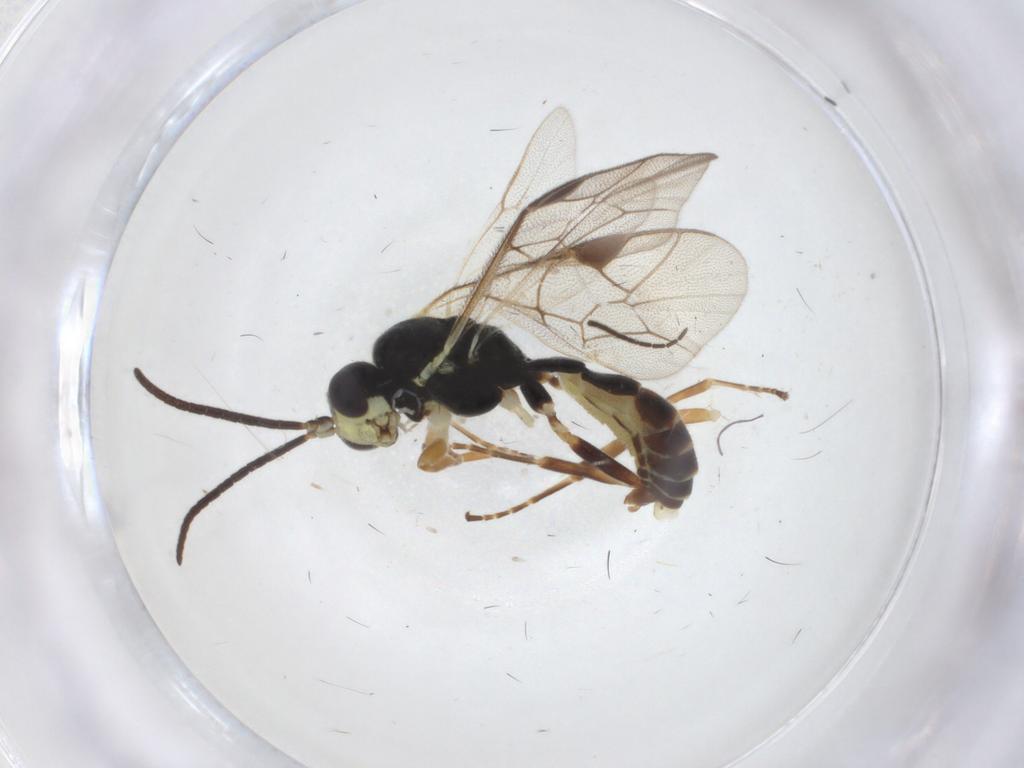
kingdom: Animalia
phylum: Arthropoda
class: Insecta
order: Hymenoptera
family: Ichneumonidae
